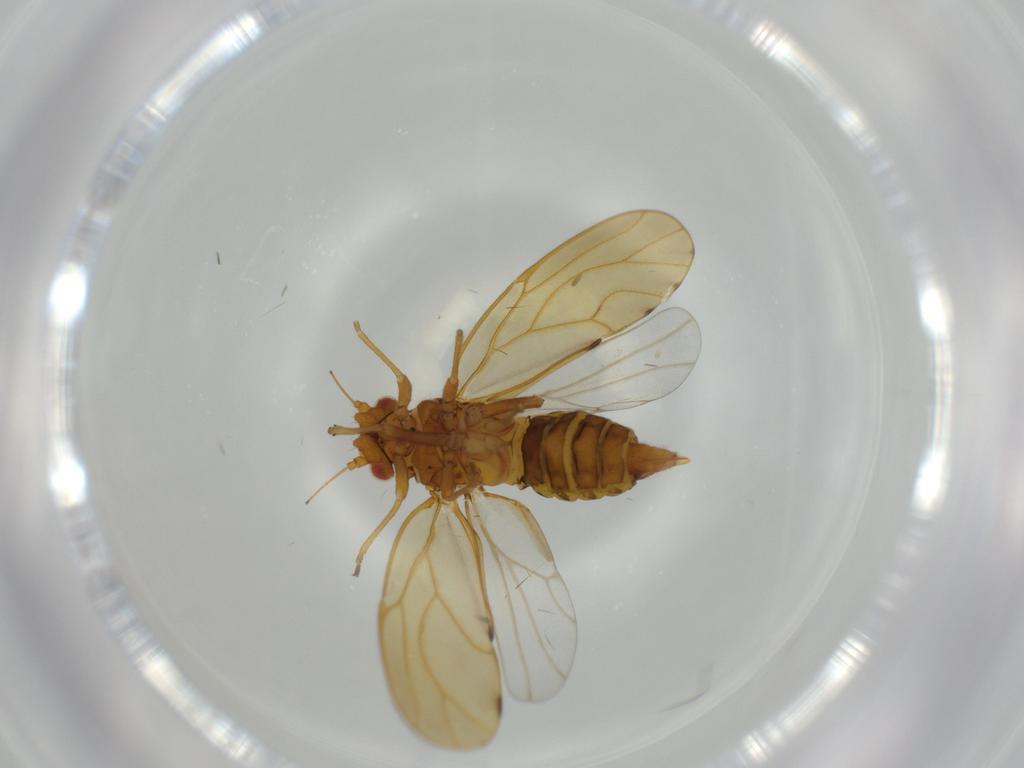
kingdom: Animalia
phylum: Arthropoda
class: Insecta
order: Hemiptera
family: Psylloidea_incertae_sedis
